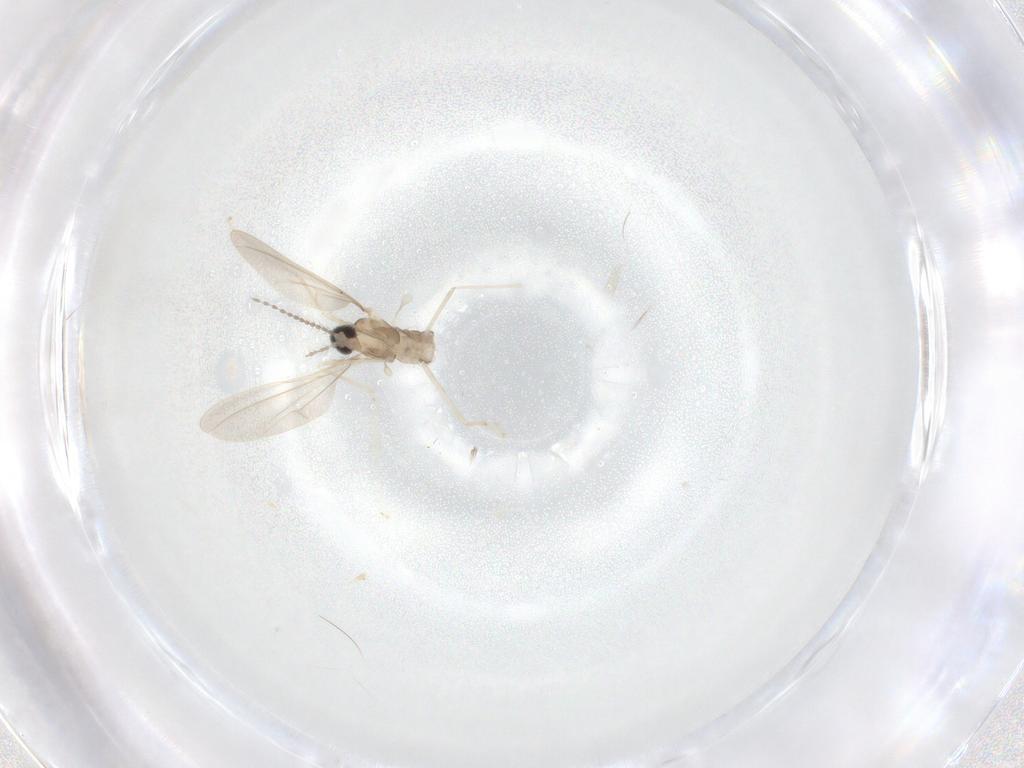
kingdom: Animalia
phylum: Arthropoda
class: Insecta
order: Diptera
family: Cecidomyiidae
